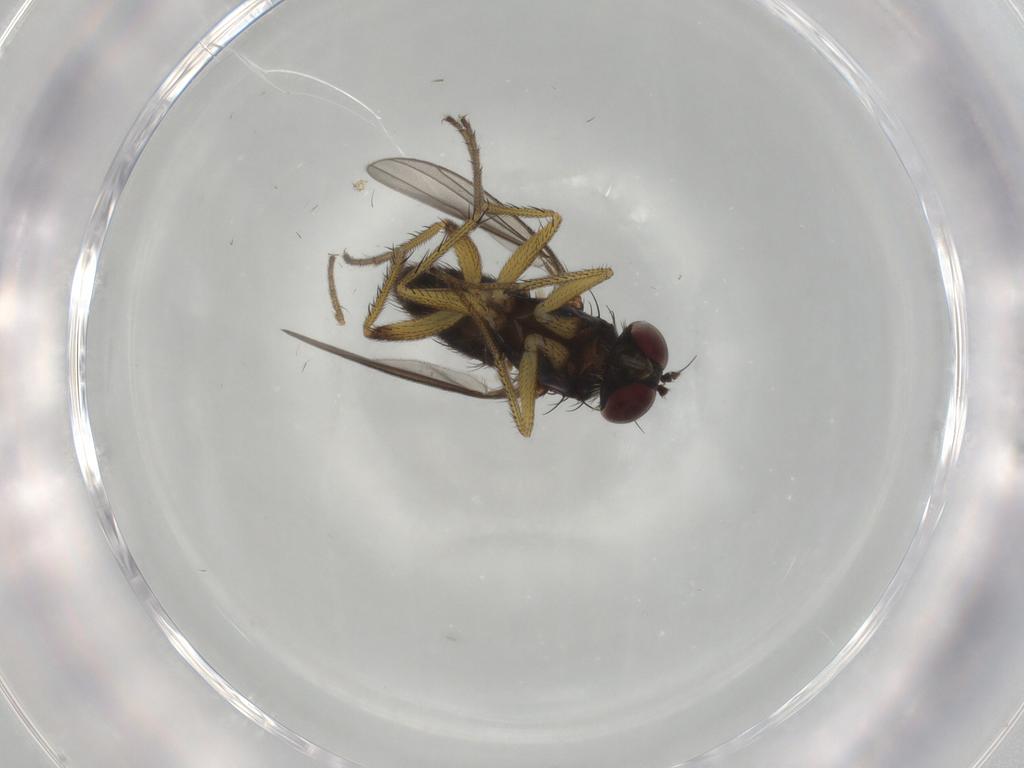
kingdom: Animalia
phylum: Arthropoda
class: Insecta
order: Diptera
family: Dolichopodidae
